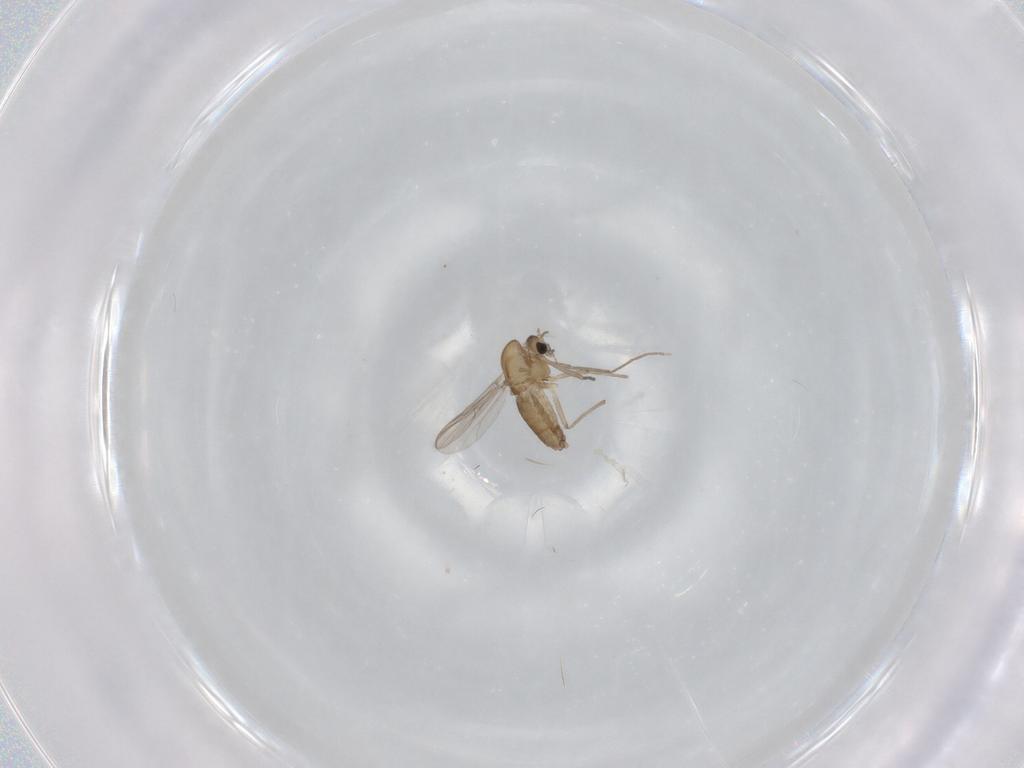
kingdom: Animalia
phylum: Arthropoda
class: Insecta
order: Diptera
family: Chironomidae
